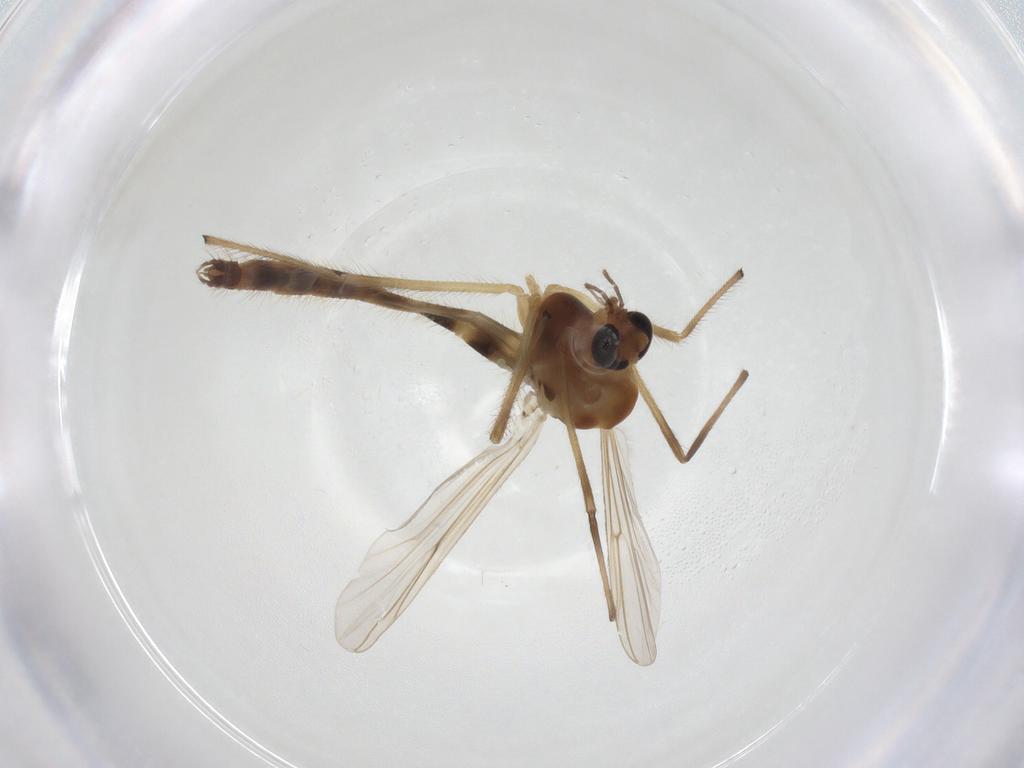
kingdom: Animalia
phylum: Arthropoda
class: Insecta
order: Diptera
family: Chironomidae
